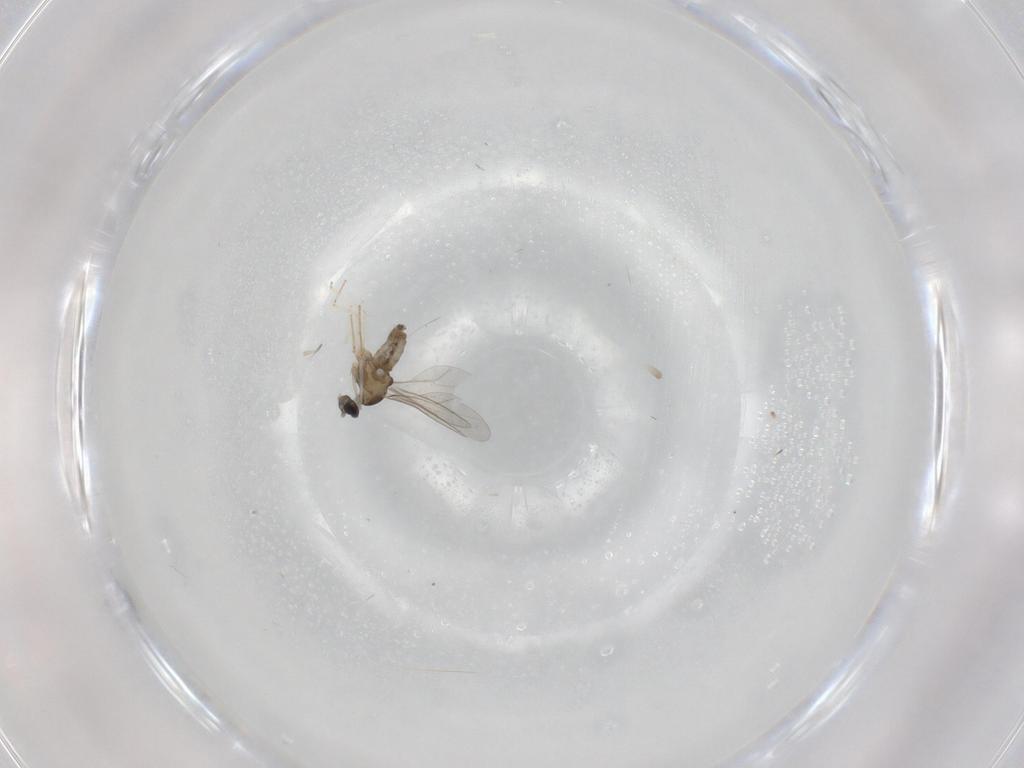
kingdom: Animalia
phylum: Arthropoda
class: Insecta
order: Diptera
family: Cecidomyiidae
